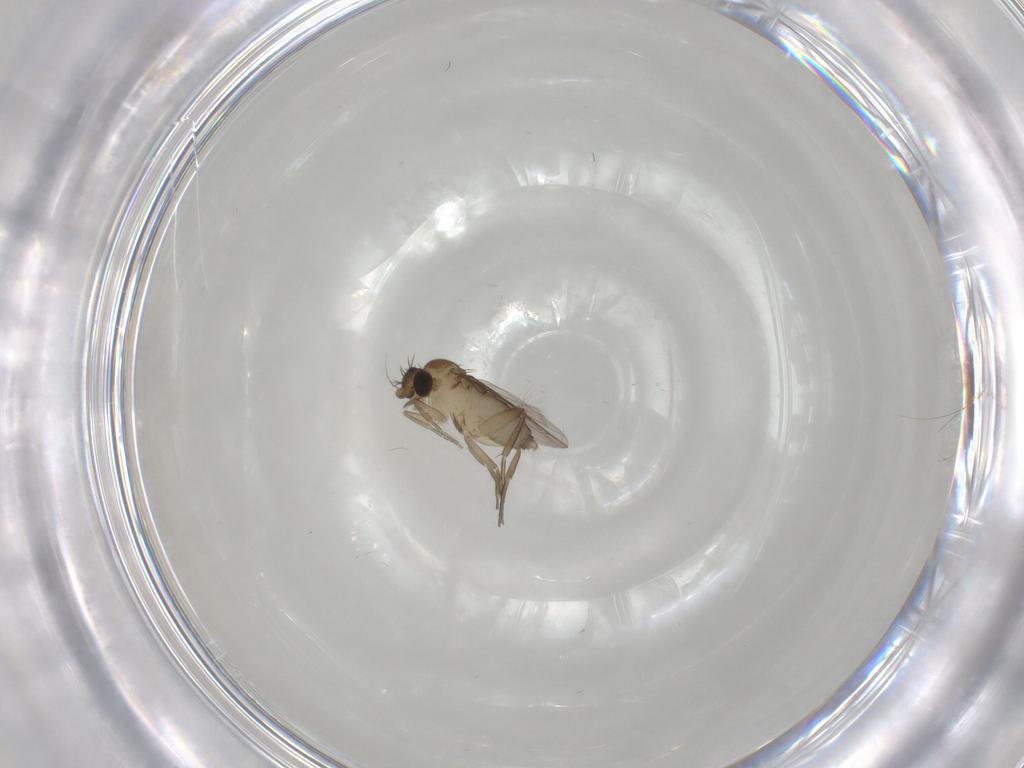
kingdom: Animalia
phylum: Arthropoda
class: Insecta
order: Diptera
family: Phoridae
